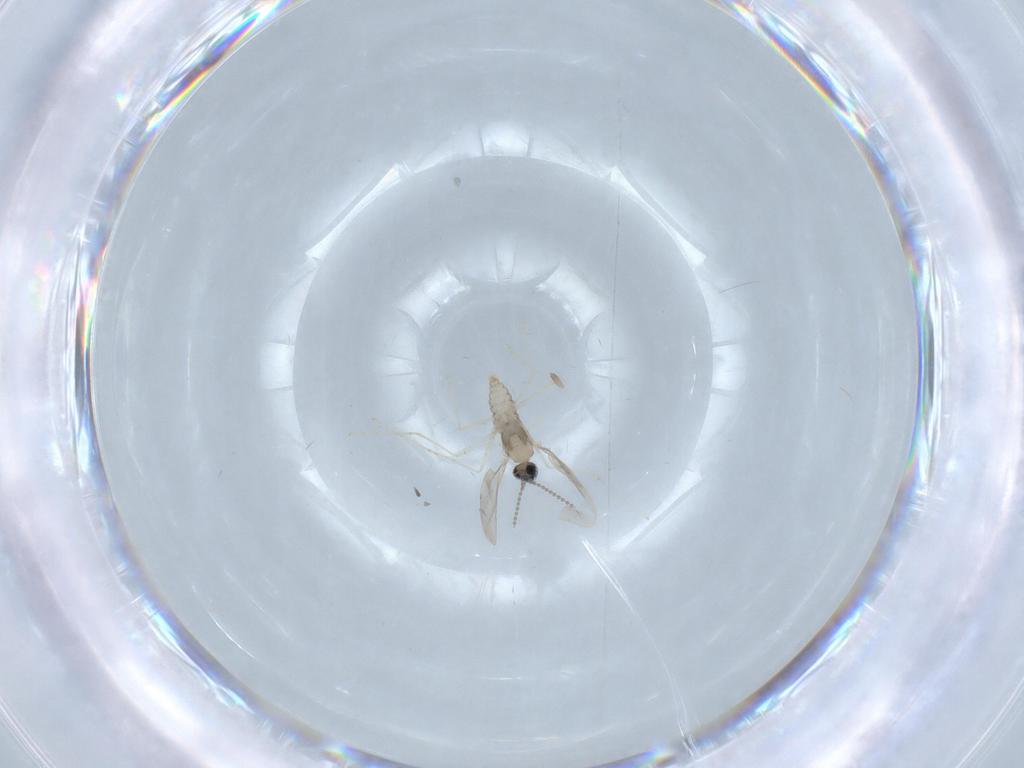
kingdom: Animalia
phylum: Arthropoda
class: Insecta
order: Diptera
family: Cecidomyiidae
